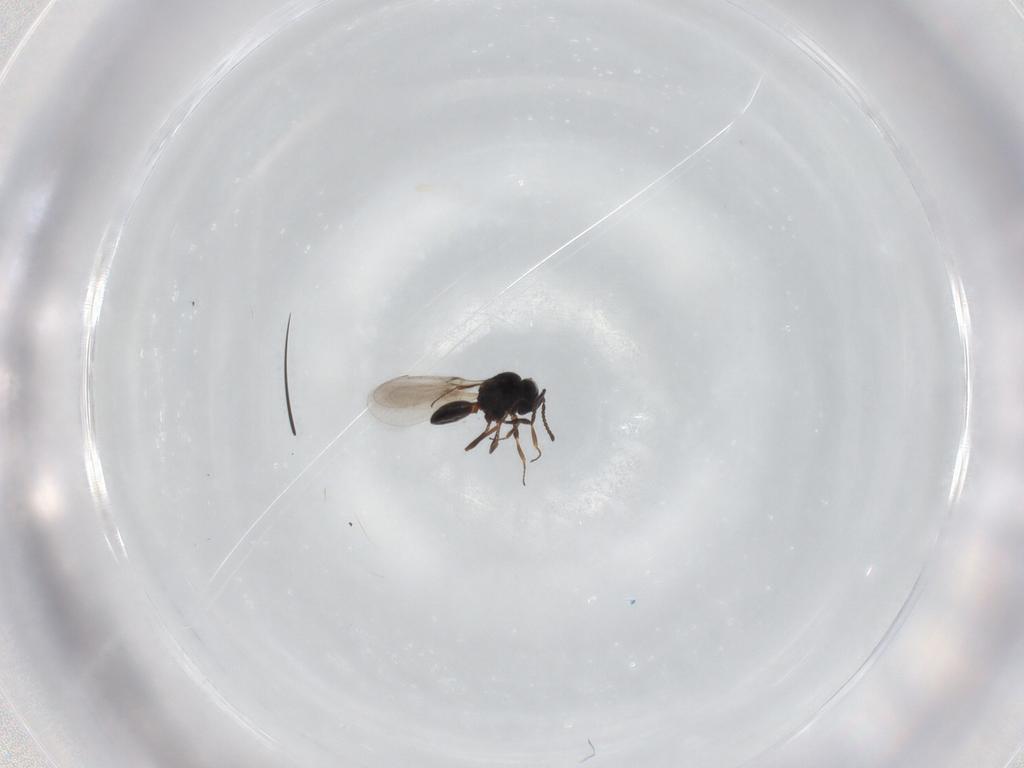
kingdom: Animalia
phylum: Arthropoda
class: Insecta
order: Hymenoptera
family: Scelionidae
